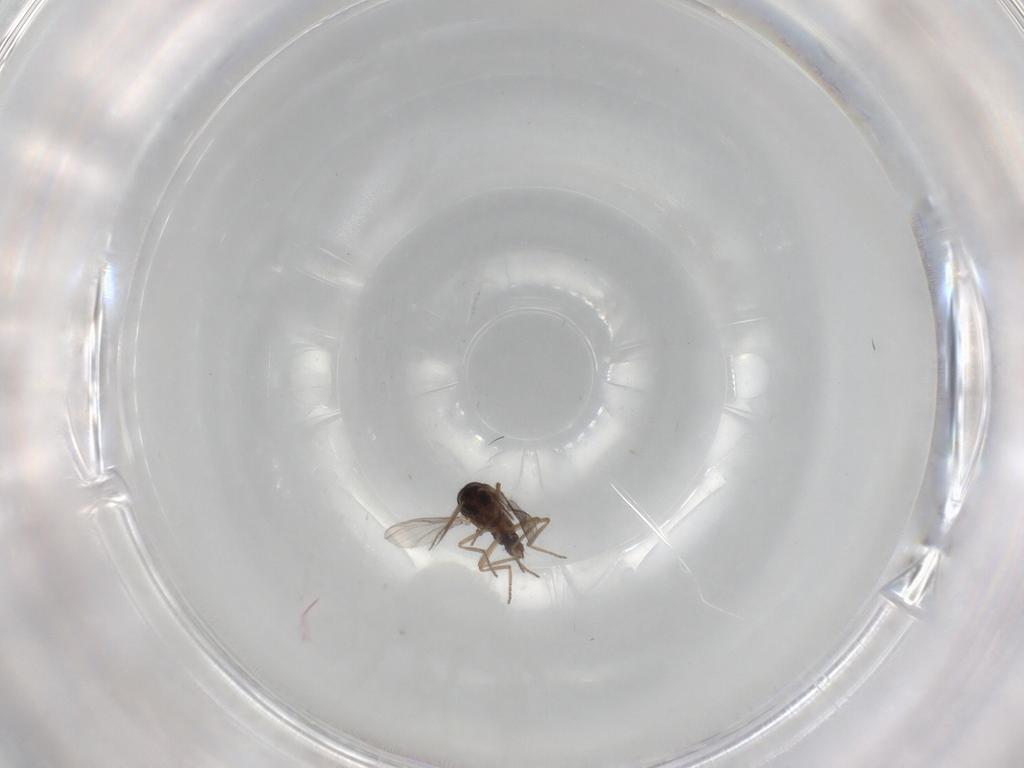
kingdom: Animalia
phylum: Arthropoda
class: Insecta
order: Diptera
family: Ceratopogonidae
